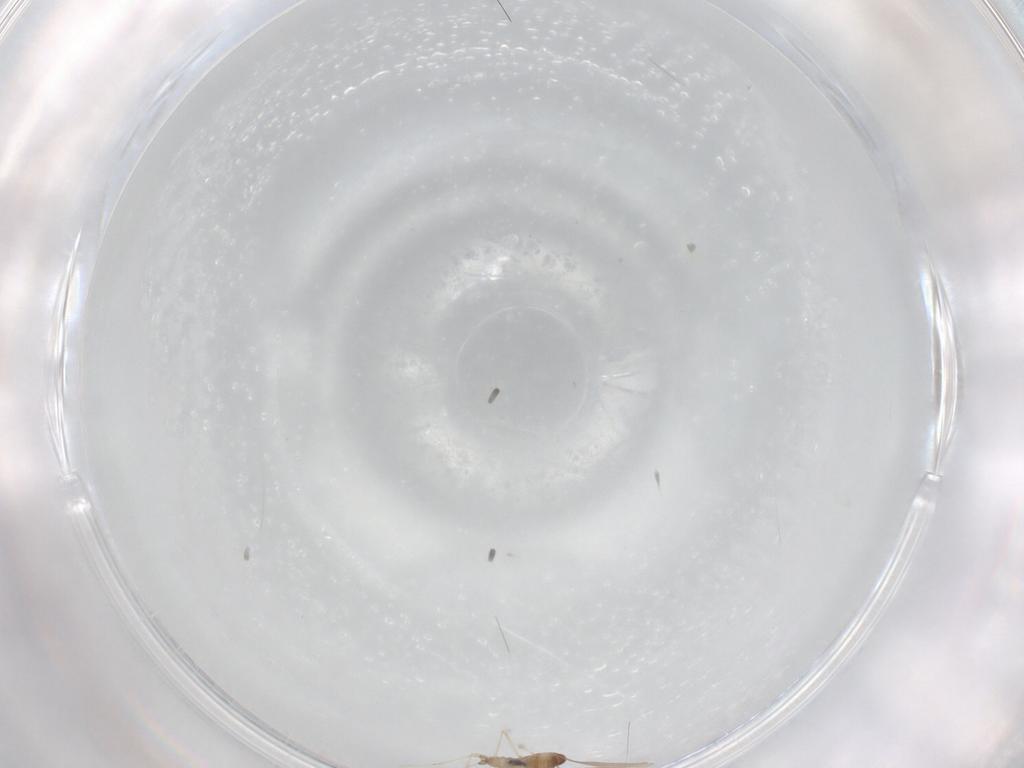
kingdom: Animalia
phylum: Arthropoda
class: Insecta
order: Diptera
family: Cecidomyiidae
